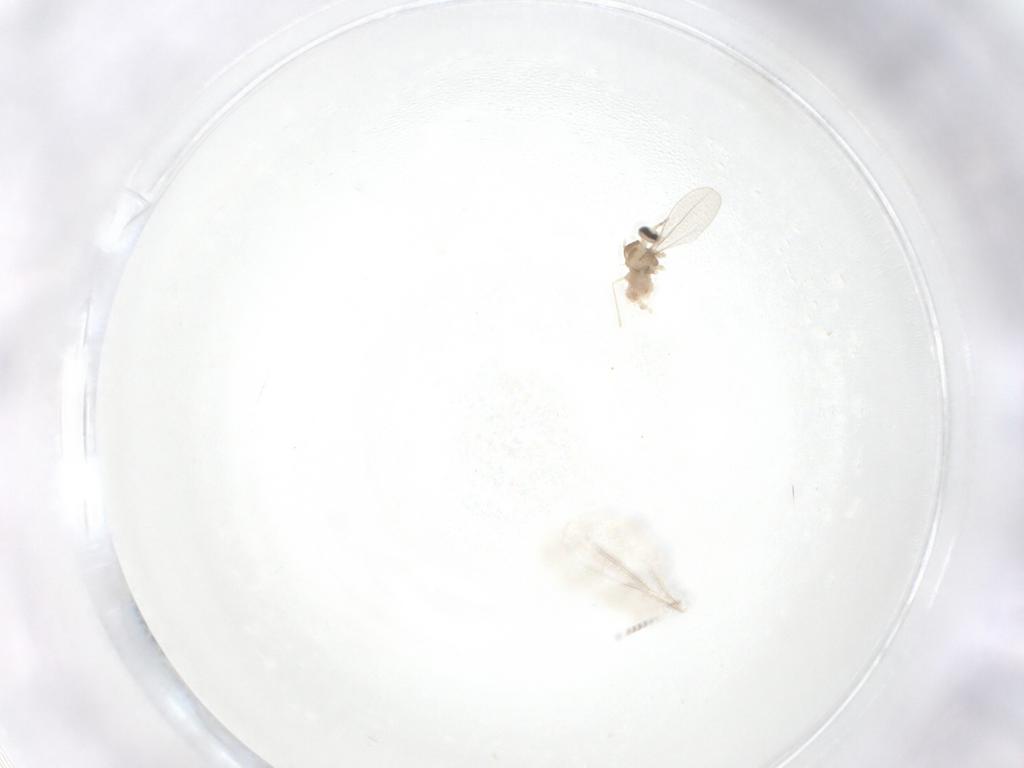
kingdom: Animalia
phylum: Arthropoda
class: Insecta
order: Diptera
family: Cecidomyiidae
